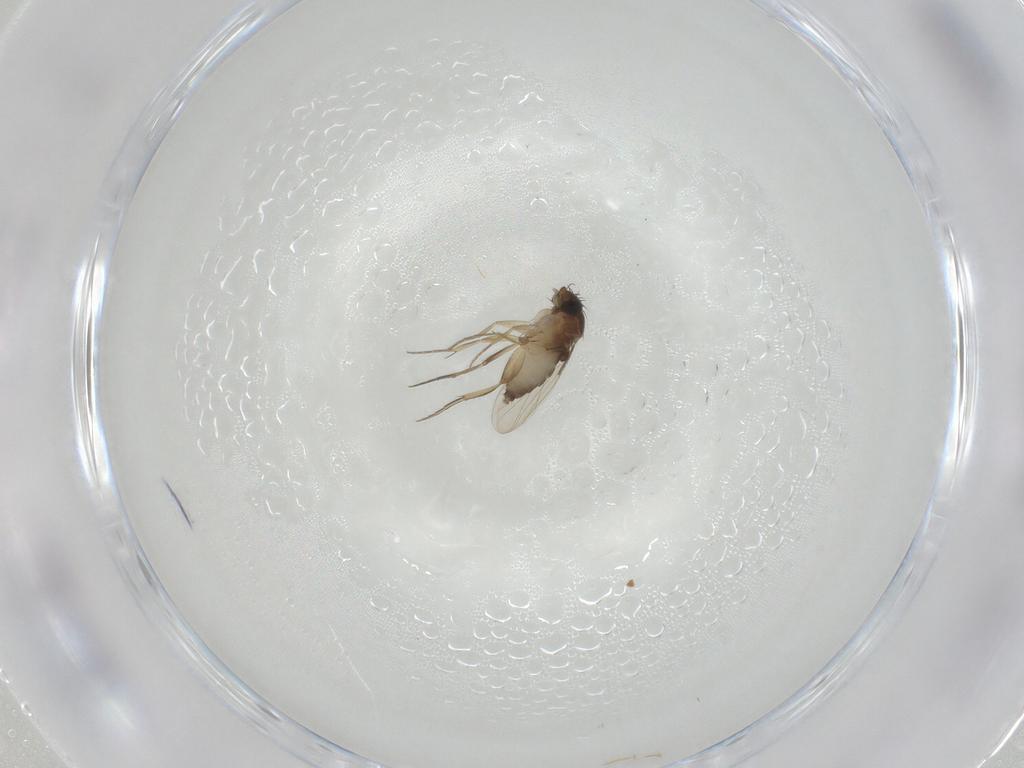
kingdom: Animalia
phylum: Arthropoda
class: Insecta
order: Diptera
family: Phoridae
